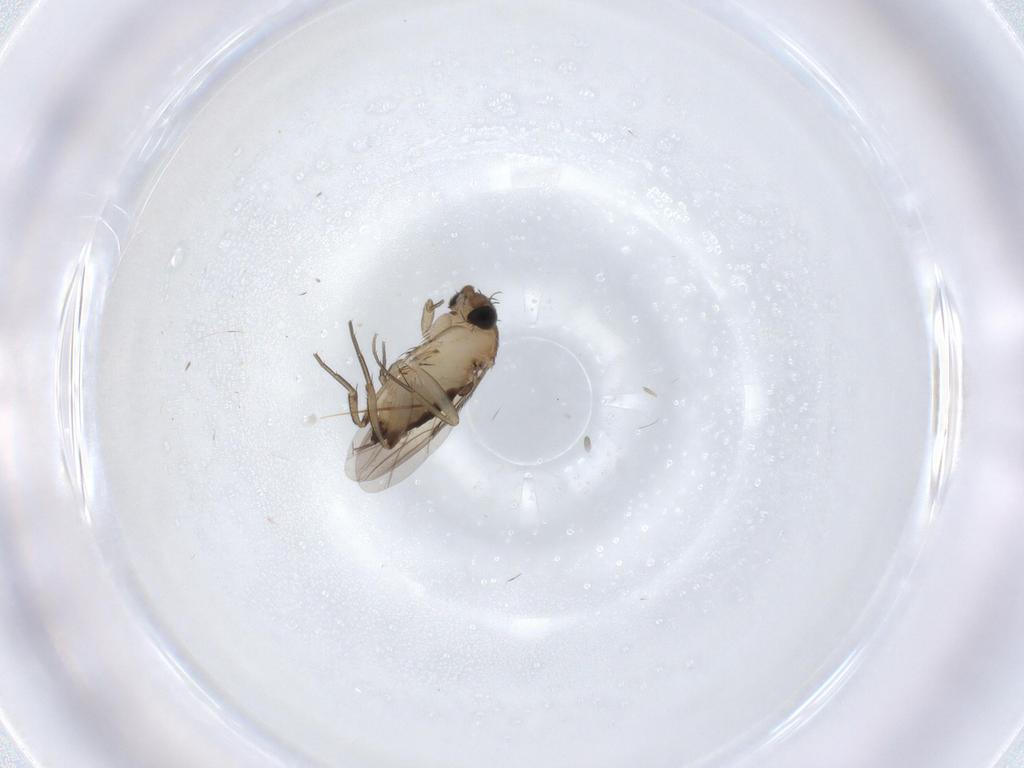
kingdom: Animalia
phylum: Arthropoda
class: Insecta
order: Diptera
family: Phoridae
